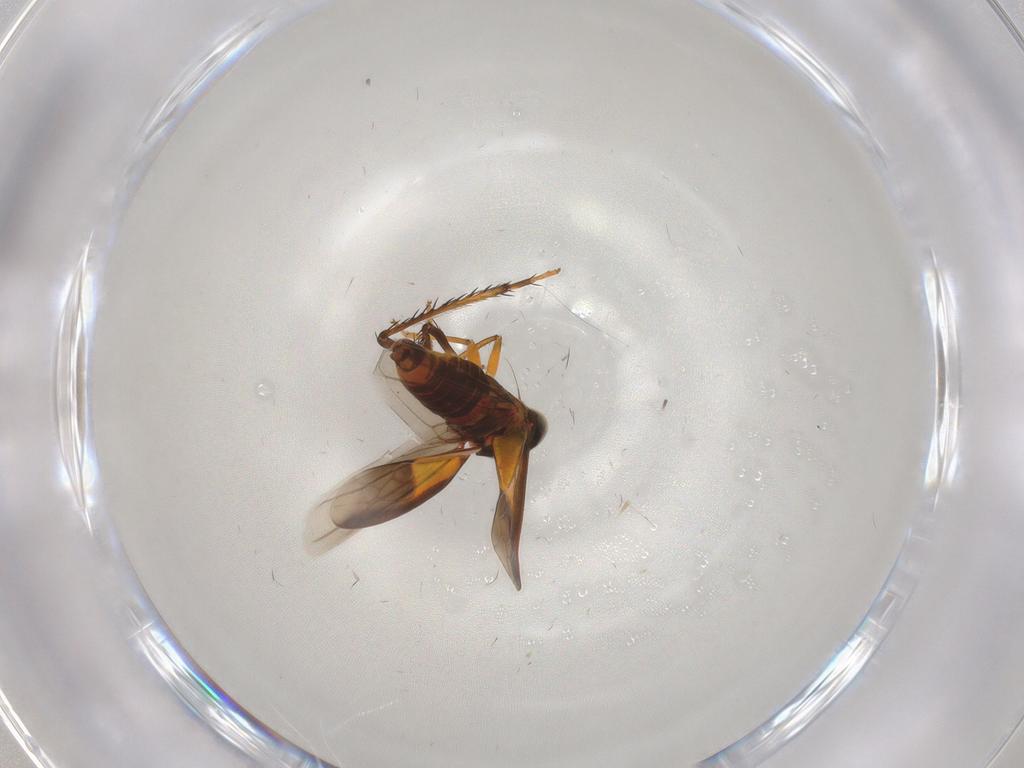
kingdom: Animalia
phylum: Arthropoda
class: Insecta
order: Hemiptera
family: Cicadellidae
